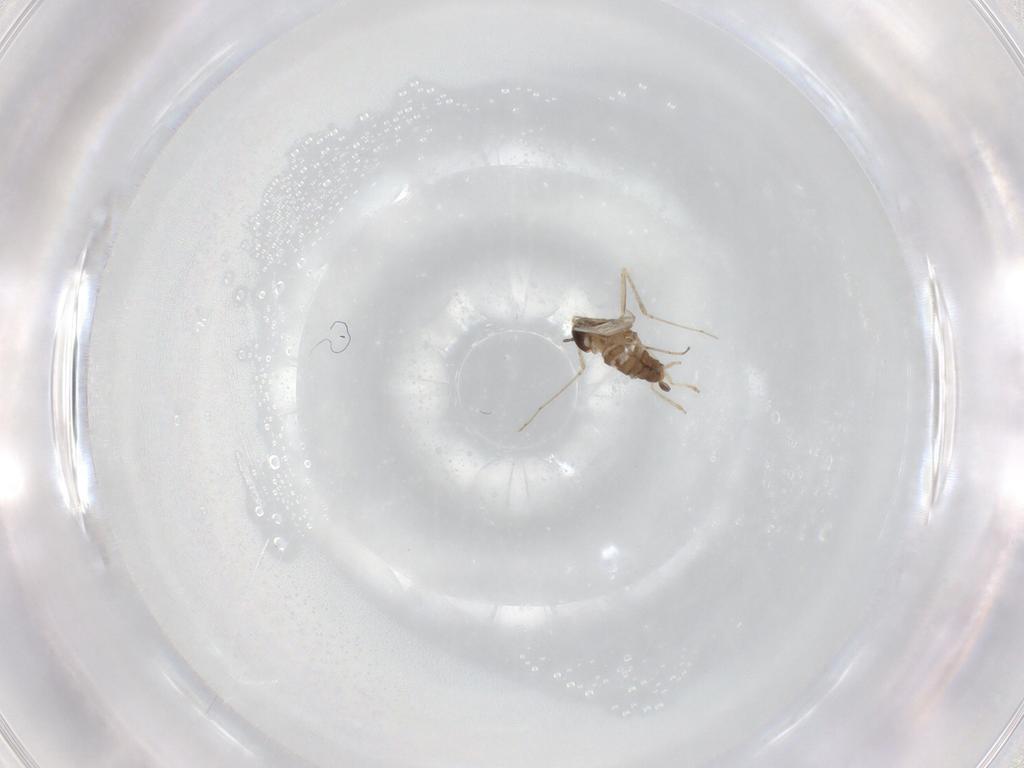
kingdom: Animalia
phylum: Arthropoda
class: Insecta
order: Diptera
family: Cecidomyiidae
